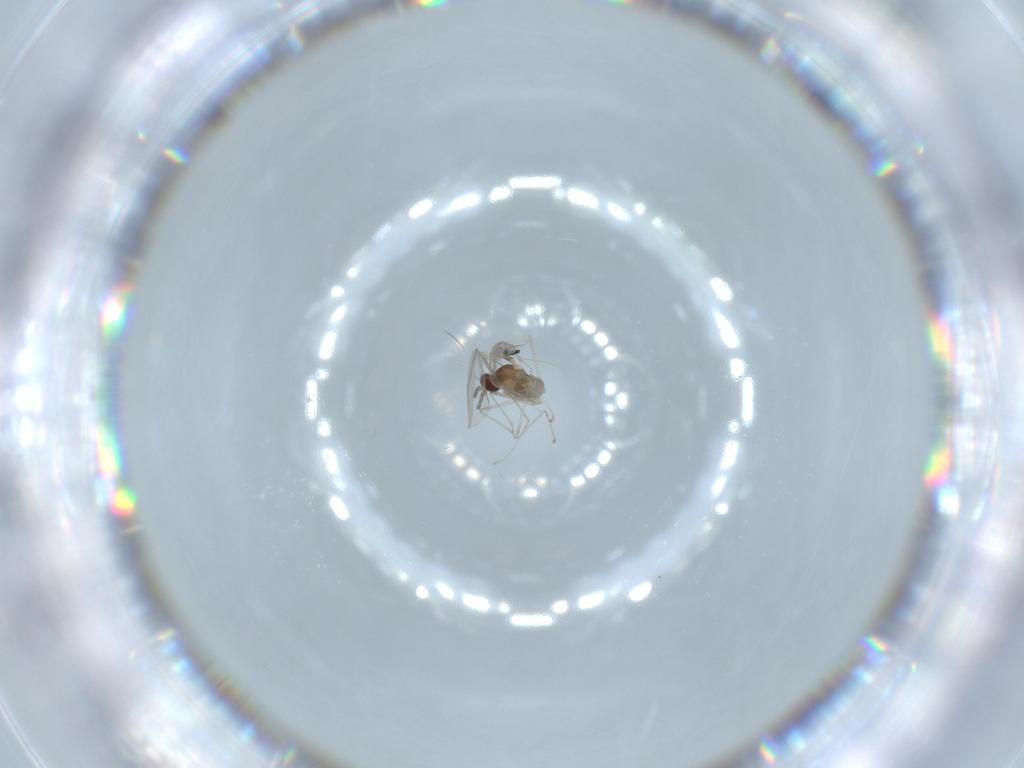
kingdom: Animalia
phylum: Arthropoda
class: Insecta
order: Diptera
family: Cecidomyiidae
